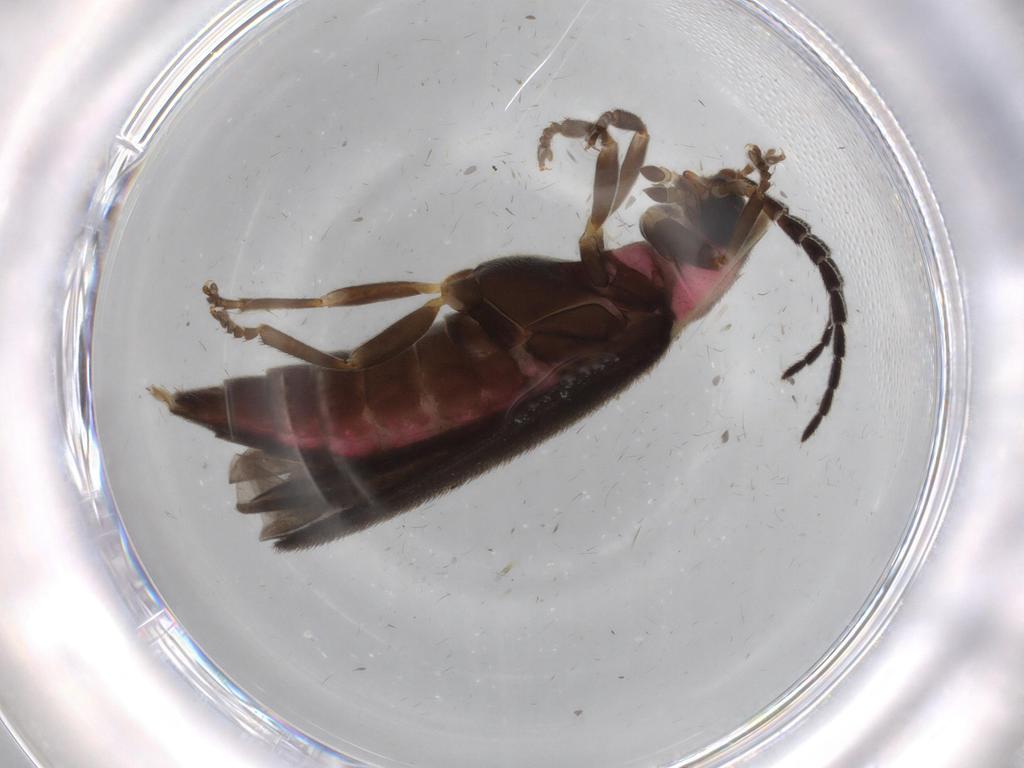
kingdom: Animalia
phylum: Arthropoda
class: Insecta
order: Coleoptera
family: Nitidulidae
